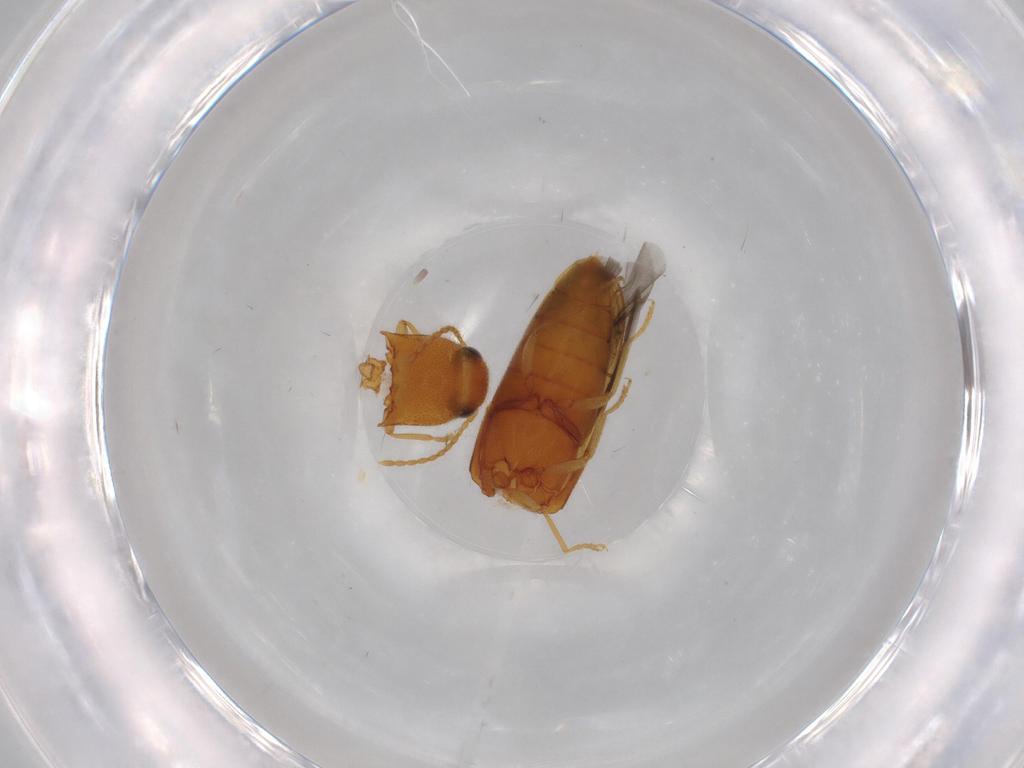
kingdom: Animalia
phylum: Arthropoda
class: Insecta
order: Coleoptera
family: Elateridae
